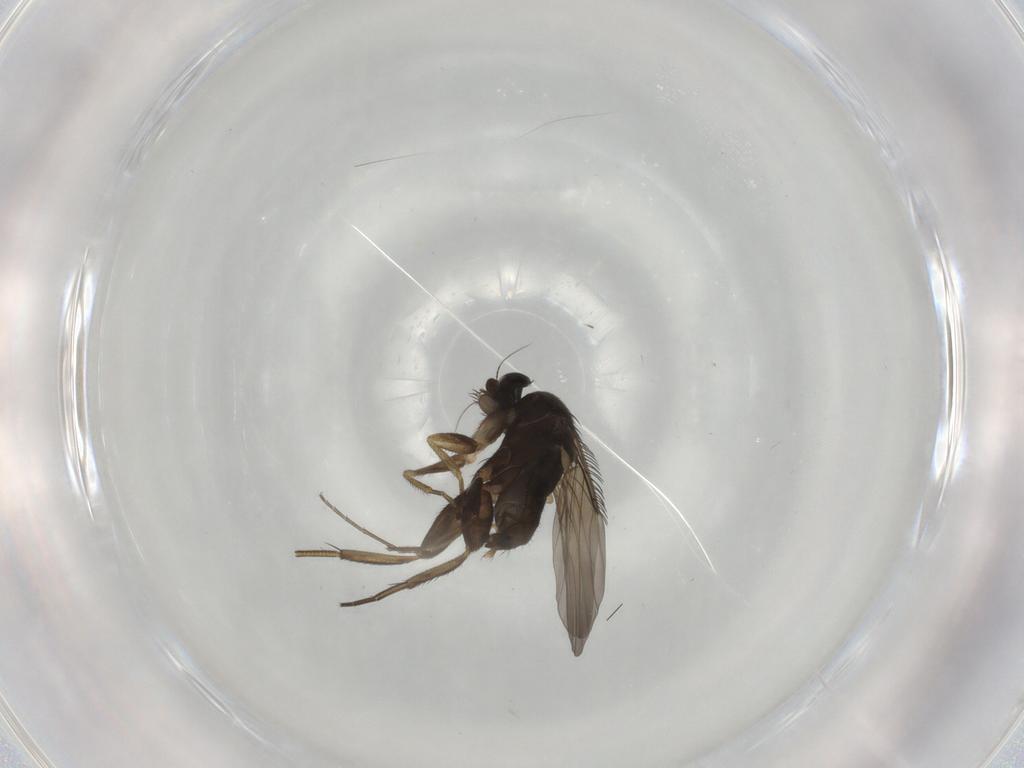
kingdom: Animalia
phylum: Arthropoda
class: Insecta
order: Diptera
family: Phoridae
